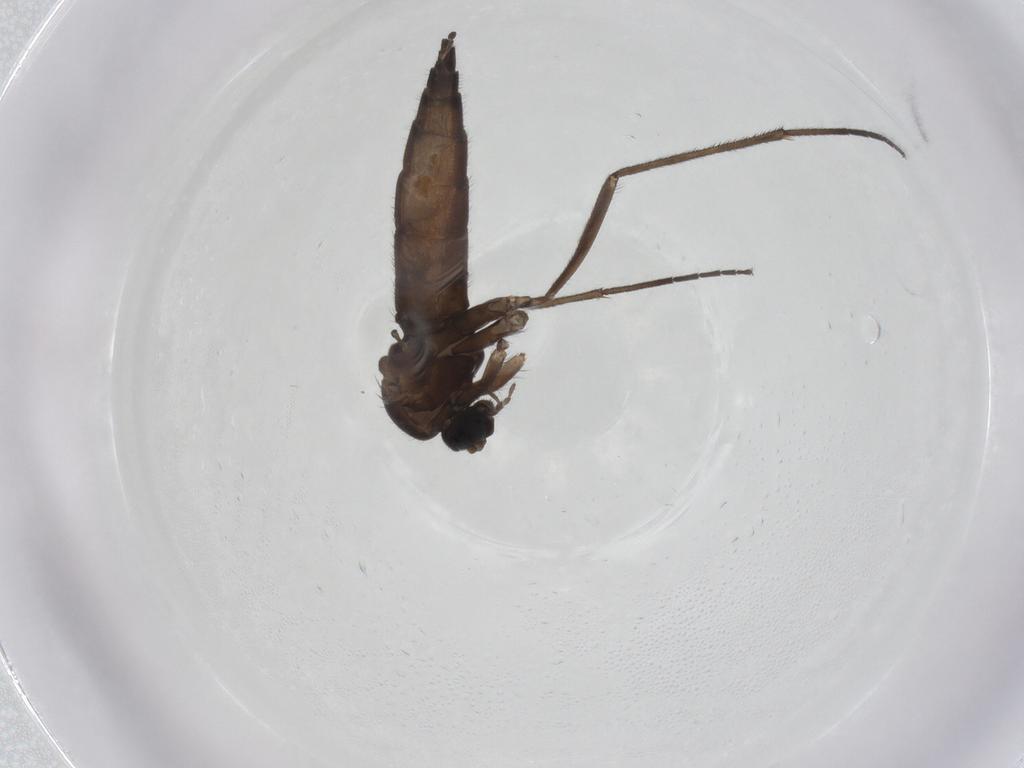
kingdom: Animalia
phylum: Arthropoda
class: Insecta
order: Diptera
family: Sciaridae
